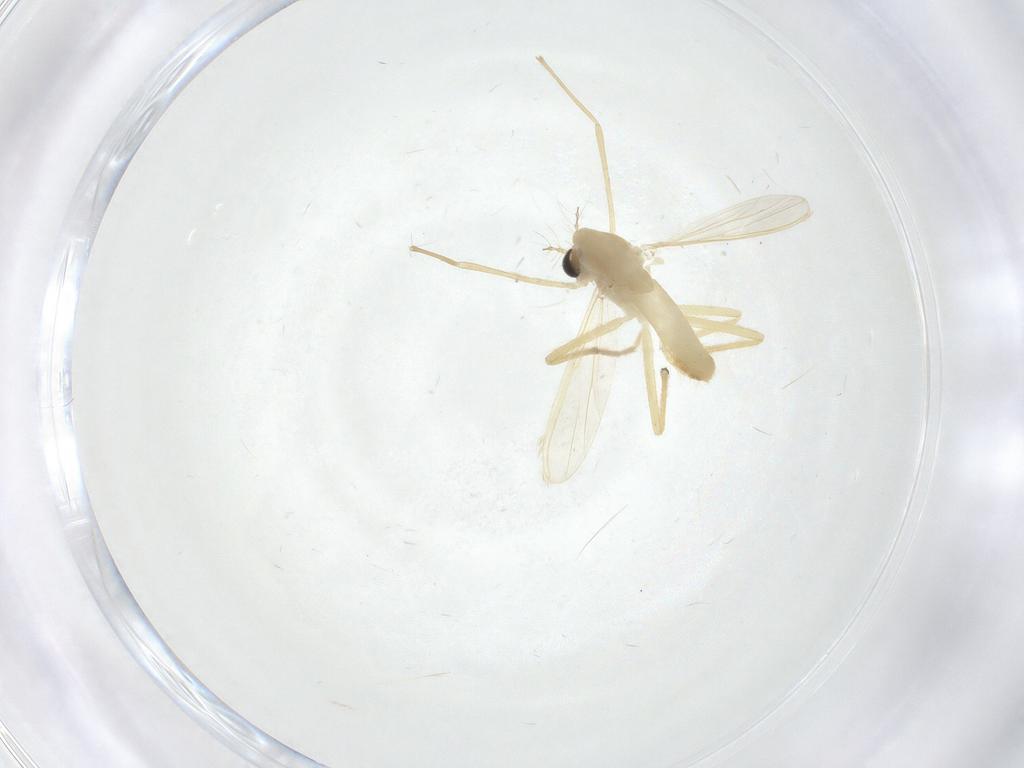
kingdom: Animalia
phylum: Arthropoda
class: Insecta
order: Diptera
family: Chironomidae
